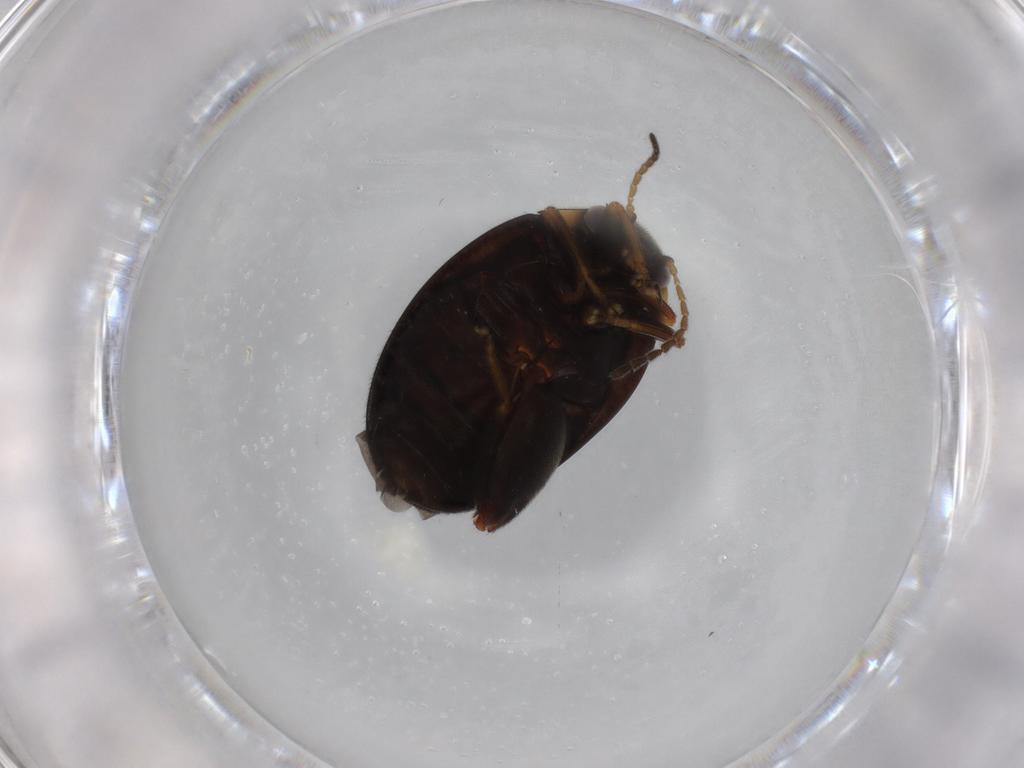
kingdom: Animalia
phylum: Arthropoda
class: Insecta
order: Coleoptera
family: Scirtidae
